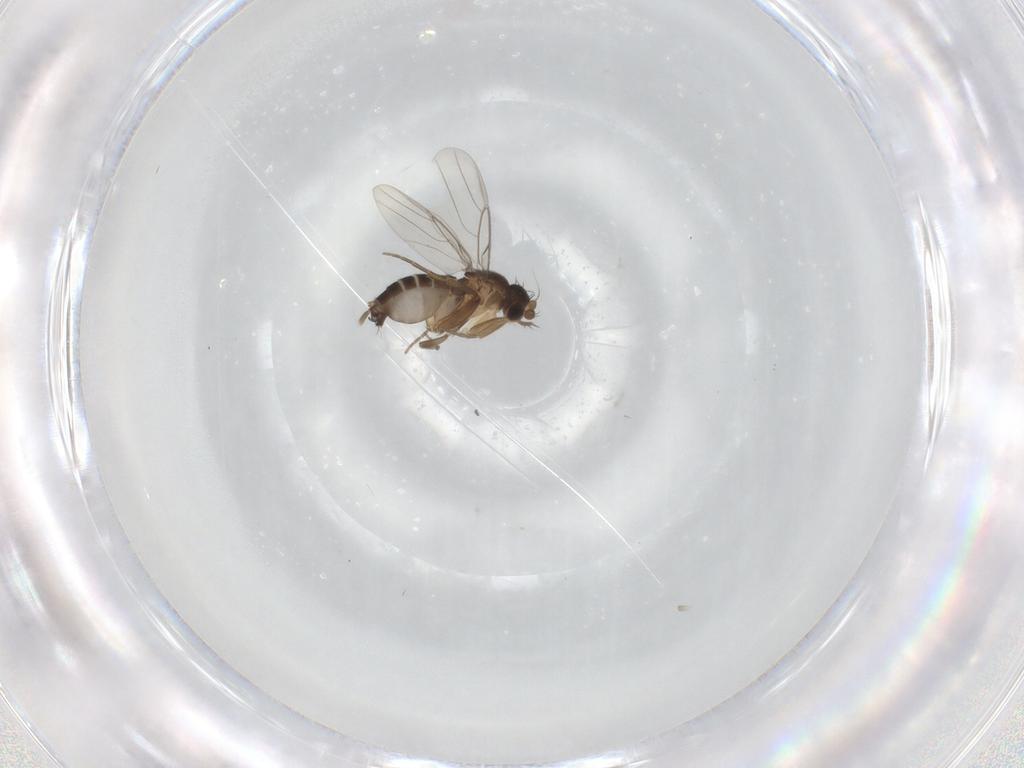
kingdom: Animalia
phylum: Arthropoda
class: Insecta
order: Diptera
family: Phoridae
